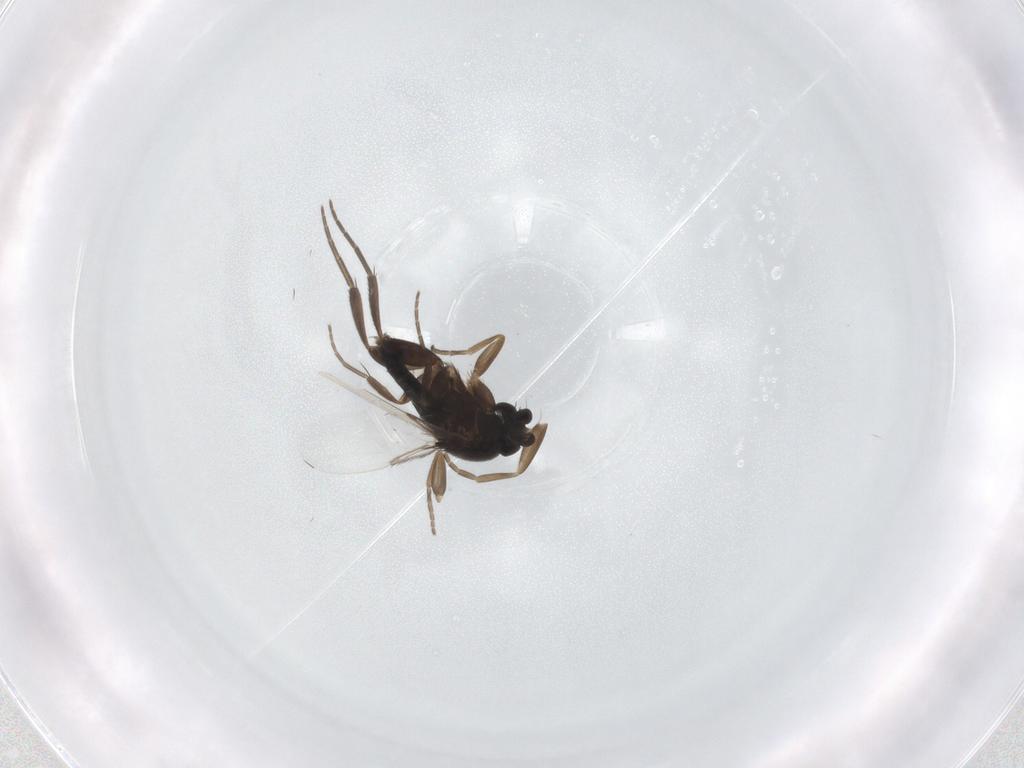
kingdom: Animalia
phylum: Arthropoda
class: Insecta
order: Diptera
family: Phoridae
